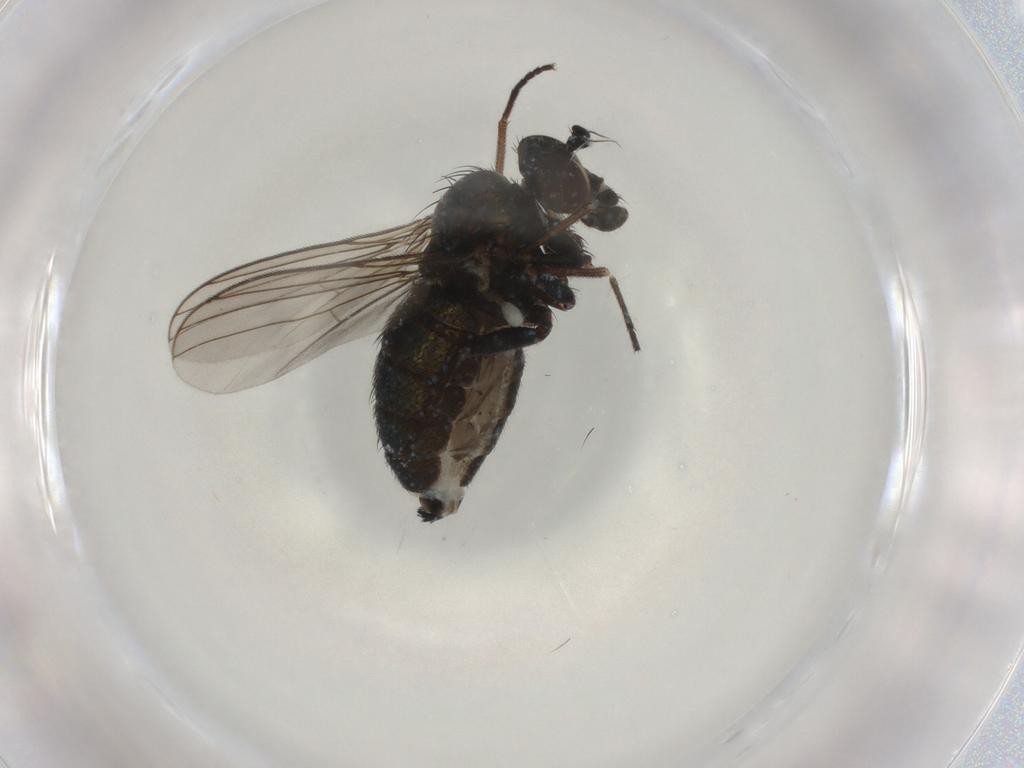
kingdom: Animalia
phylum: Arthropoda
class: Insecta
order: Diptera
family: Dolichopodidae
